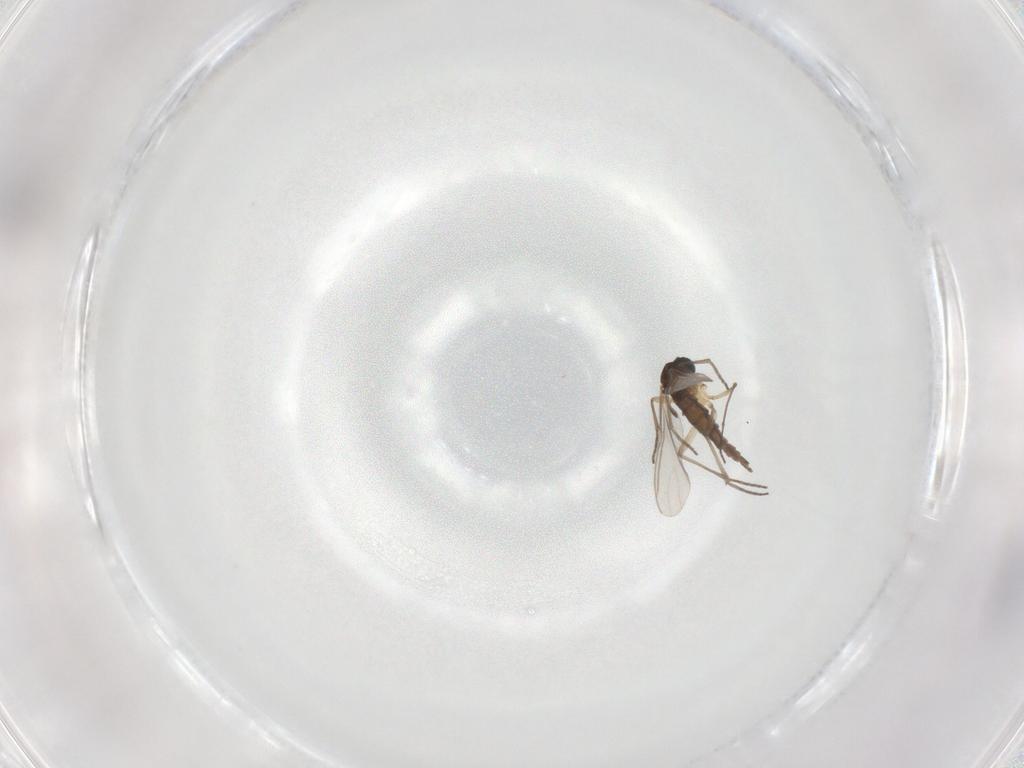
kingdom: Animalia
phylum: Arthropoda
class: Insecta
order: Diptera
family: Sciaridae
